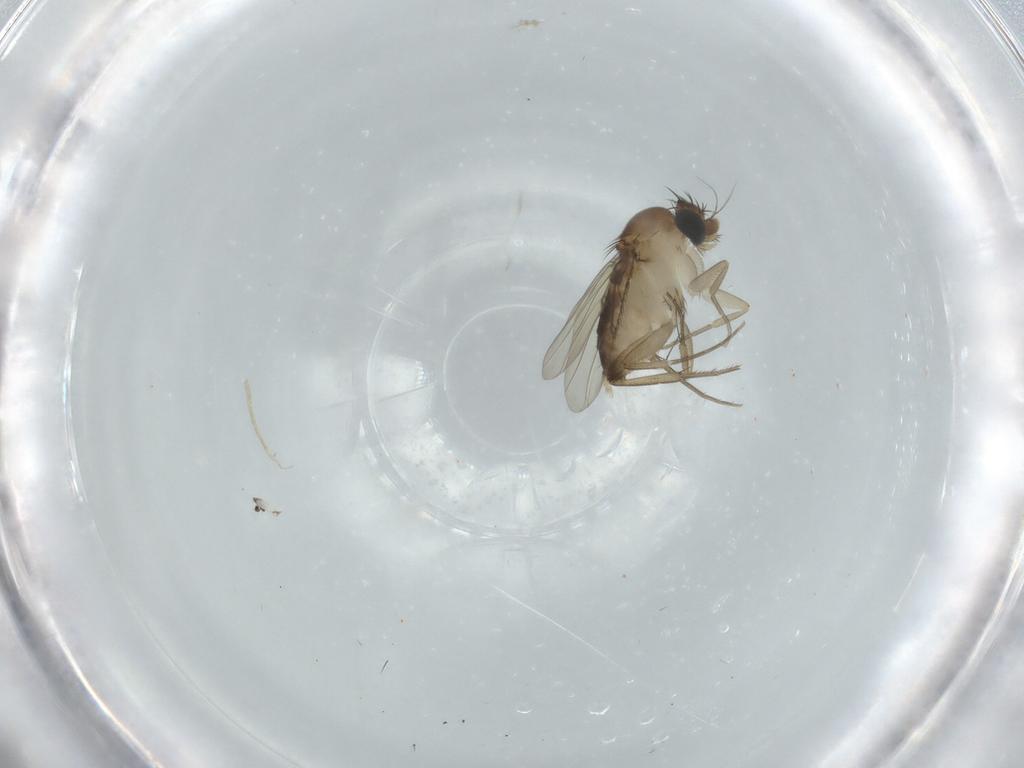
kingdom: Animalia
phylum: Arthropoda
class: Insecta
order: Diptera
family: Phoridae
